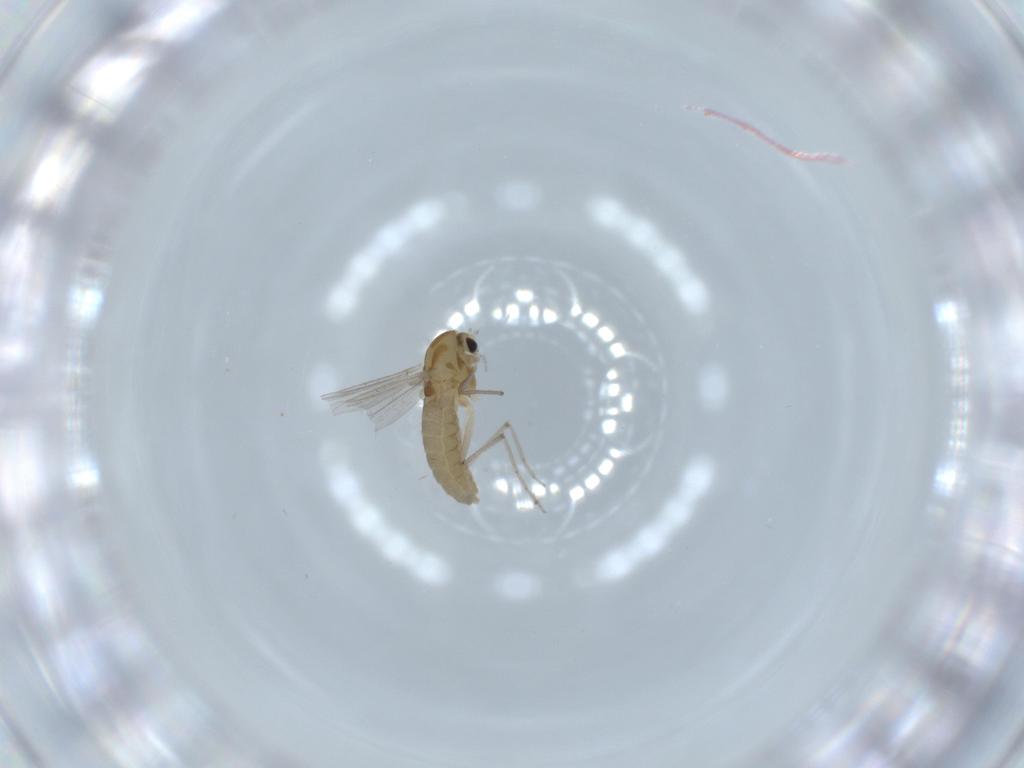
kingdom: Animalia
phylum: Arthropoda
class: Insecta
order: Diptera
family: Chironomidae
